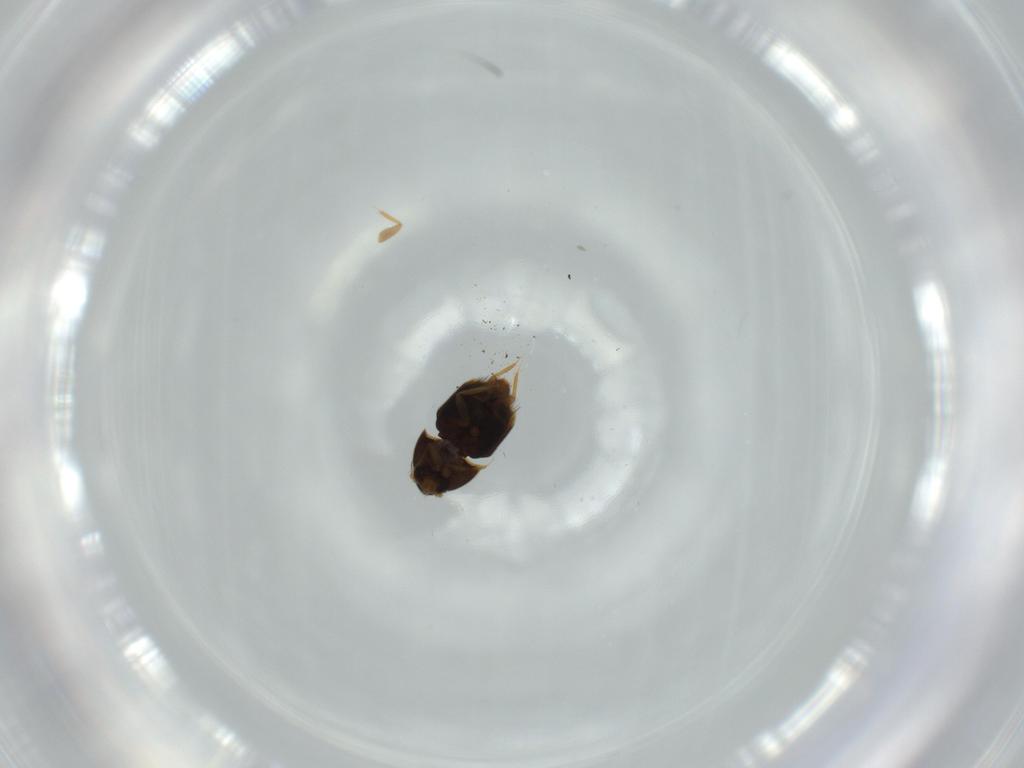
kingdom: Animalia
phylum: Arthropoda
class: Insecta
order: Coleoptera
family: Ptiliidae
